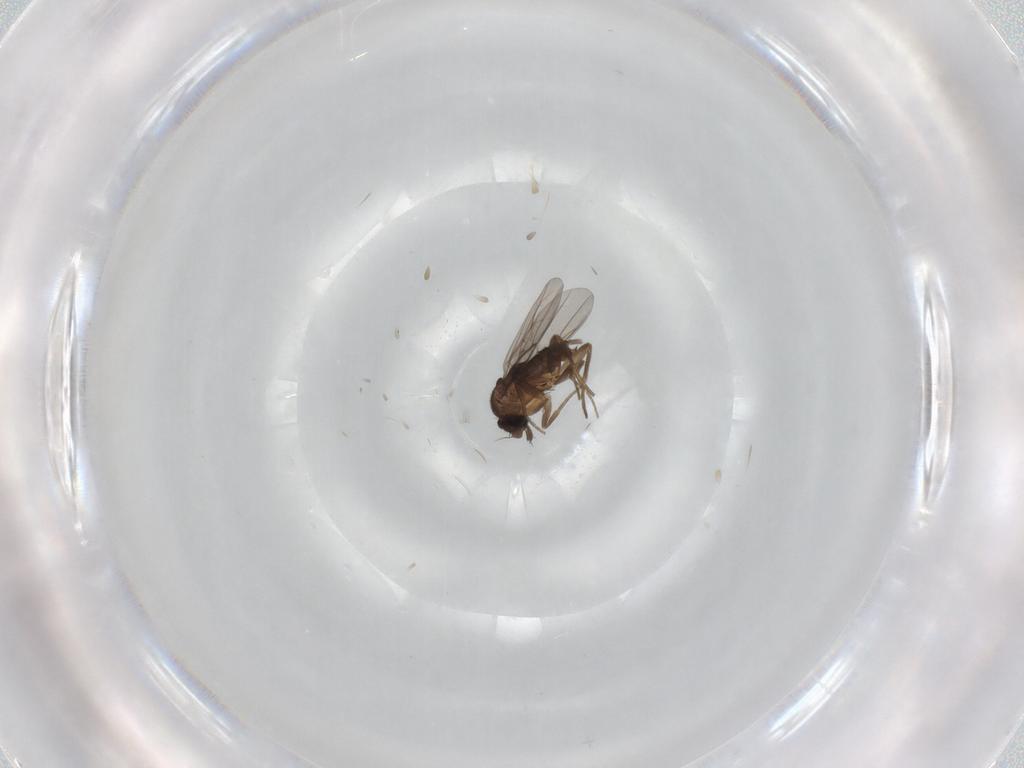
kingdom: Animalia
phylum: Arthropoda
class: Insecta
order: Diptera
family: Phoridae
